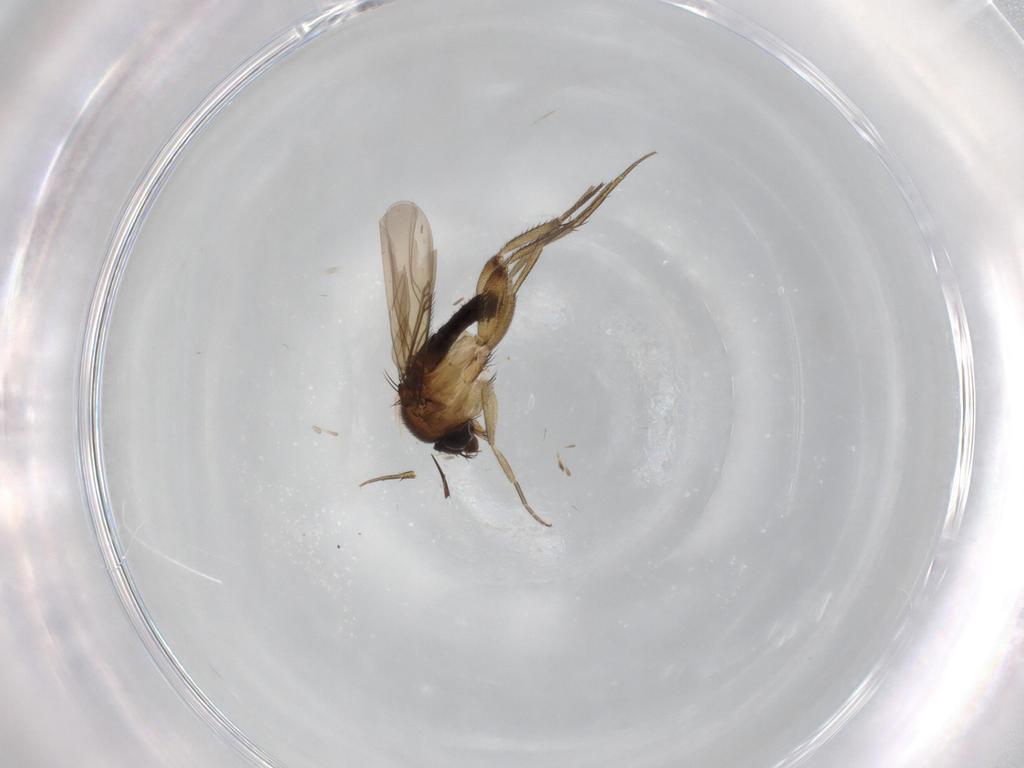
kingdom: Animalia
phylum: Arthropoda
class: Insecta
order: Diptera
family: Phoridae
